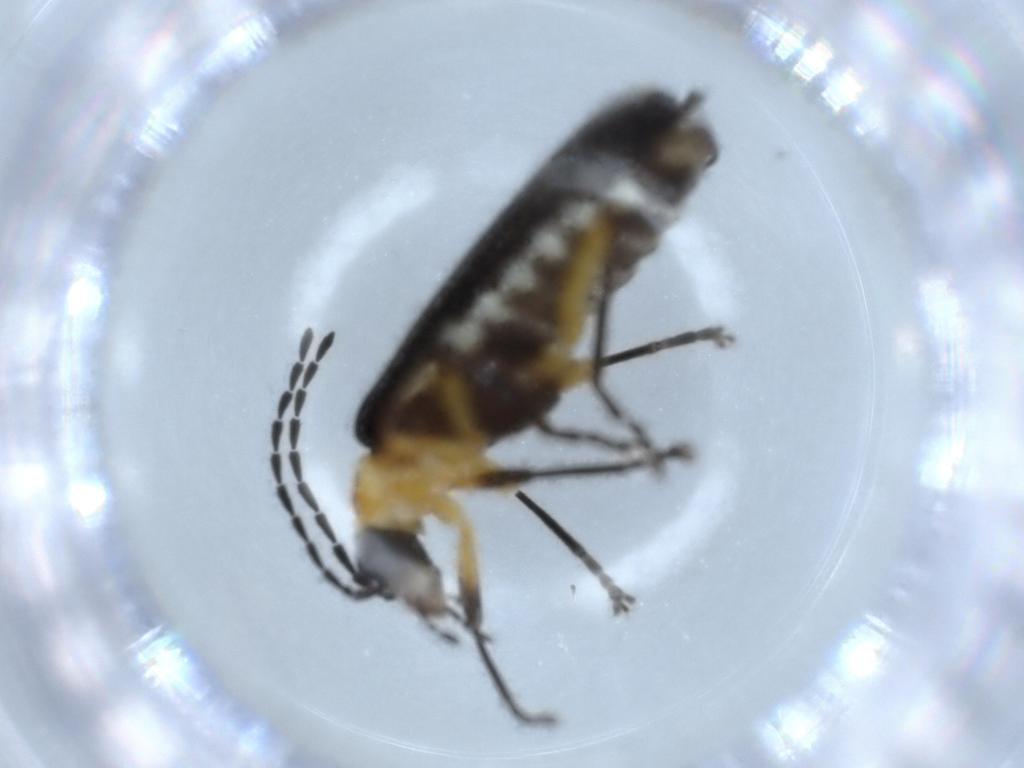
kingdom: Animalia
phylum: Arthropoda
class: Insecta
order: Coleoptera
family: Cantharidae
